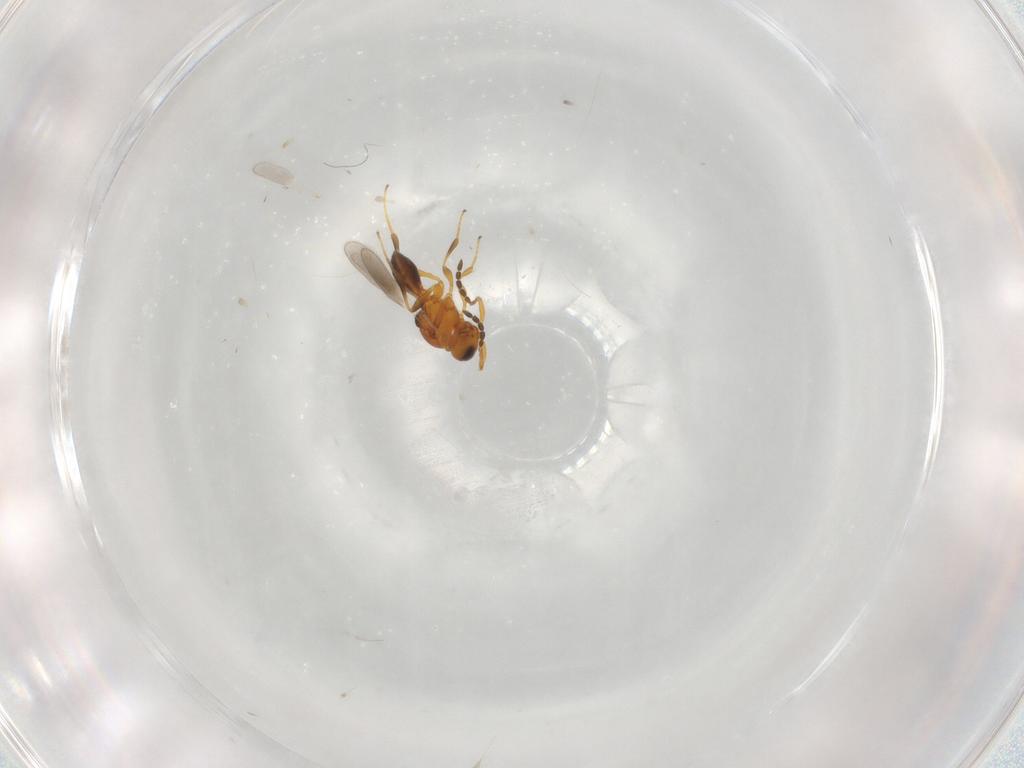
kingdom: Animalia
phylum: Arthropoda
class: Insecta
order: Hymenoptera
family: Platygastridae
